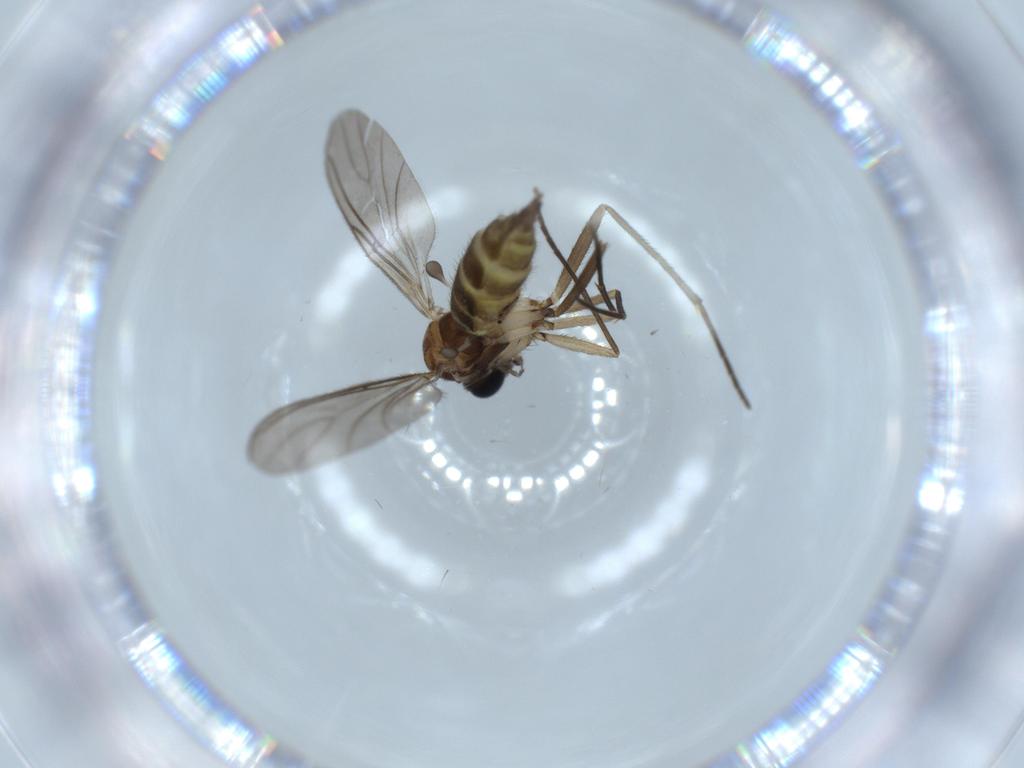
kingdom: Animalia
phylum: Arthropoda
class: Insecta
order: Diptera
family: Sciaridae
